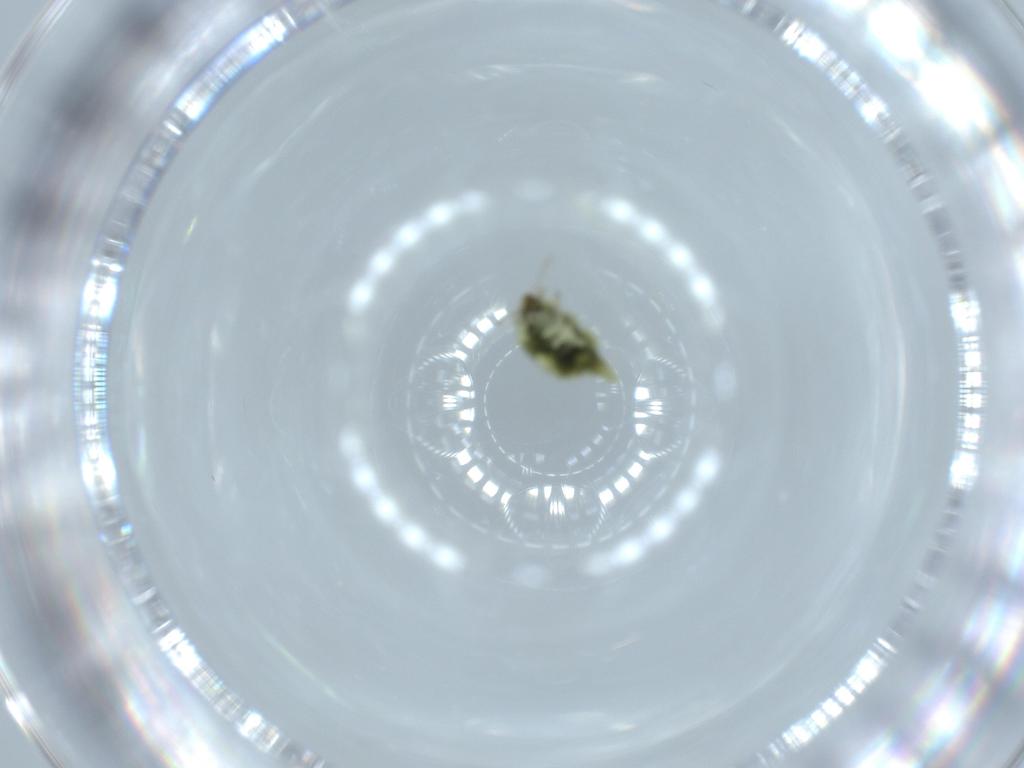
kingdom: Animalia
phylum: Arthropoda
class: Insecta
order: Neuroptera
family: Coniopterygidae
